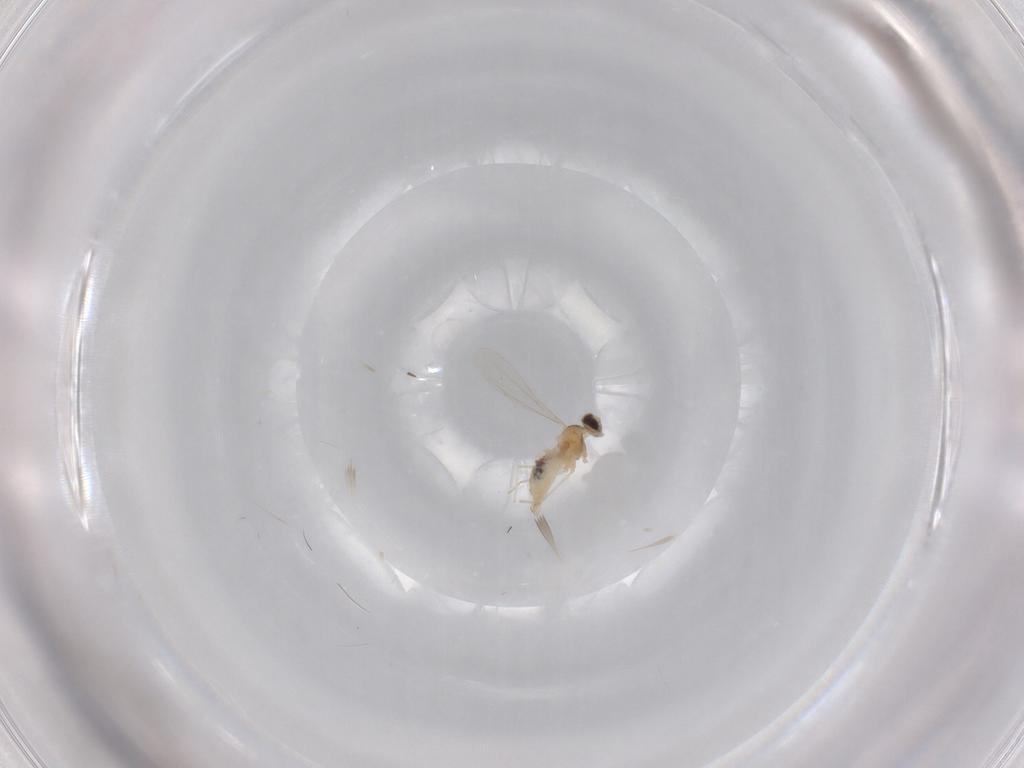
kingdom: Animalia
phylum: Arthropoda
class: Insecta
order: Diptera
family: Cecidomyiidae
